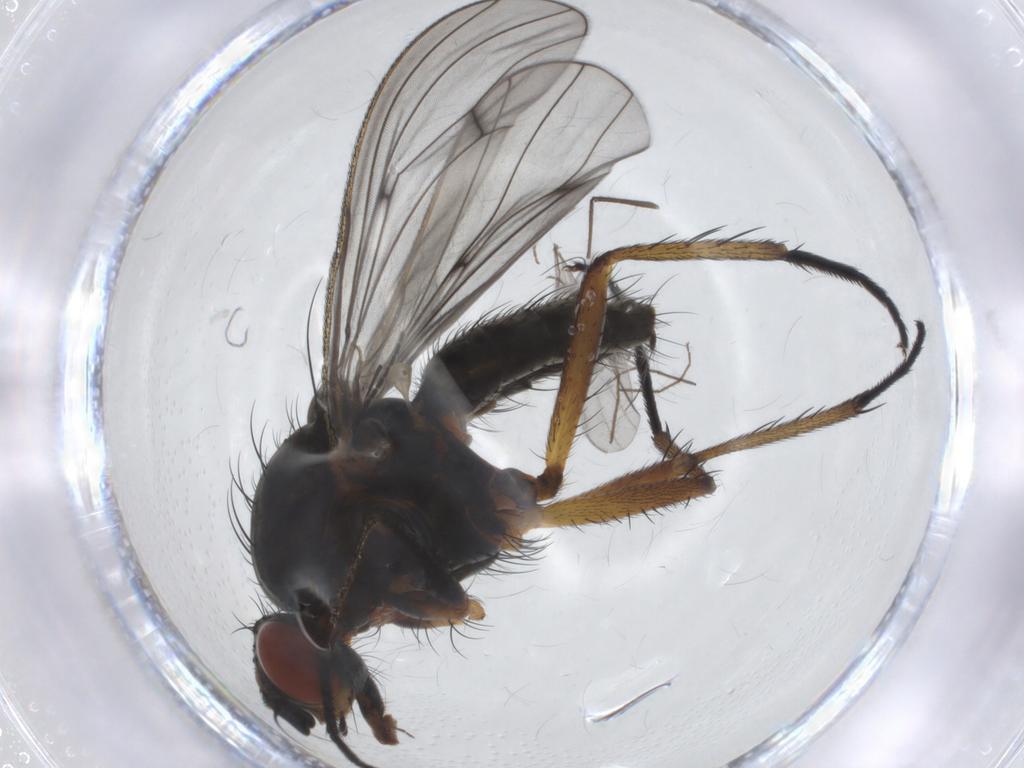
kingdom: Animalia
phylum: Arthropoda
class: Insecta
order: Diptera
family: Anthomyiidae
